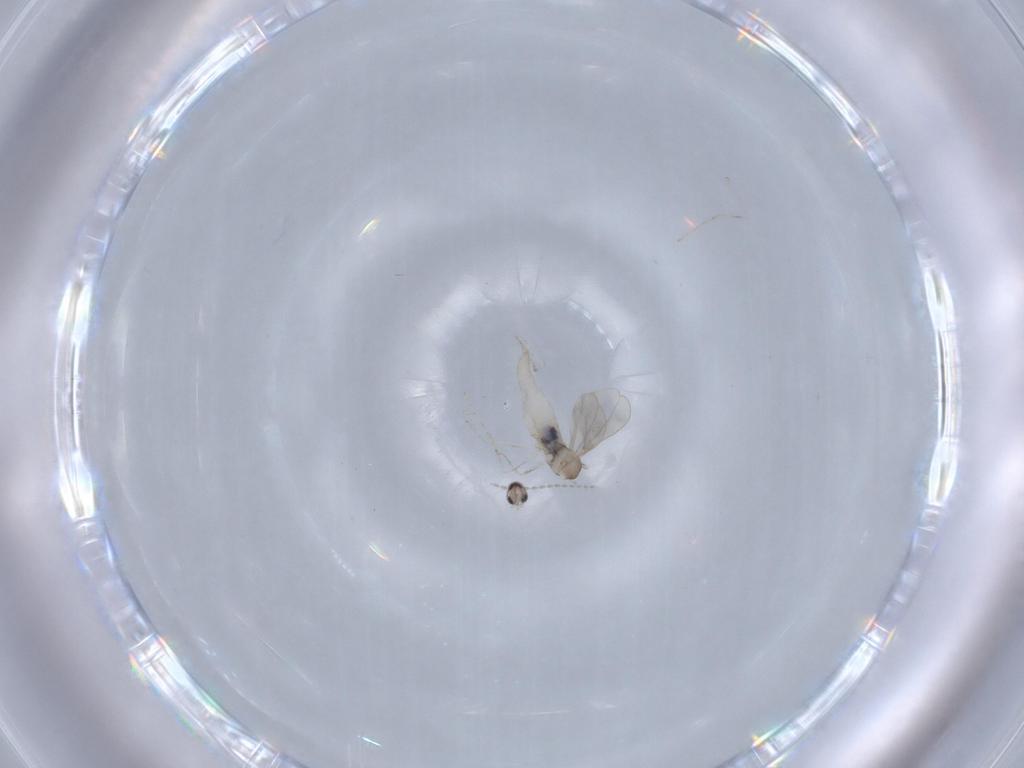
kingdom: Animalia
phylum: Arthropoda
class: Insecta
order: Diptera
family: Cecidomyiidae
